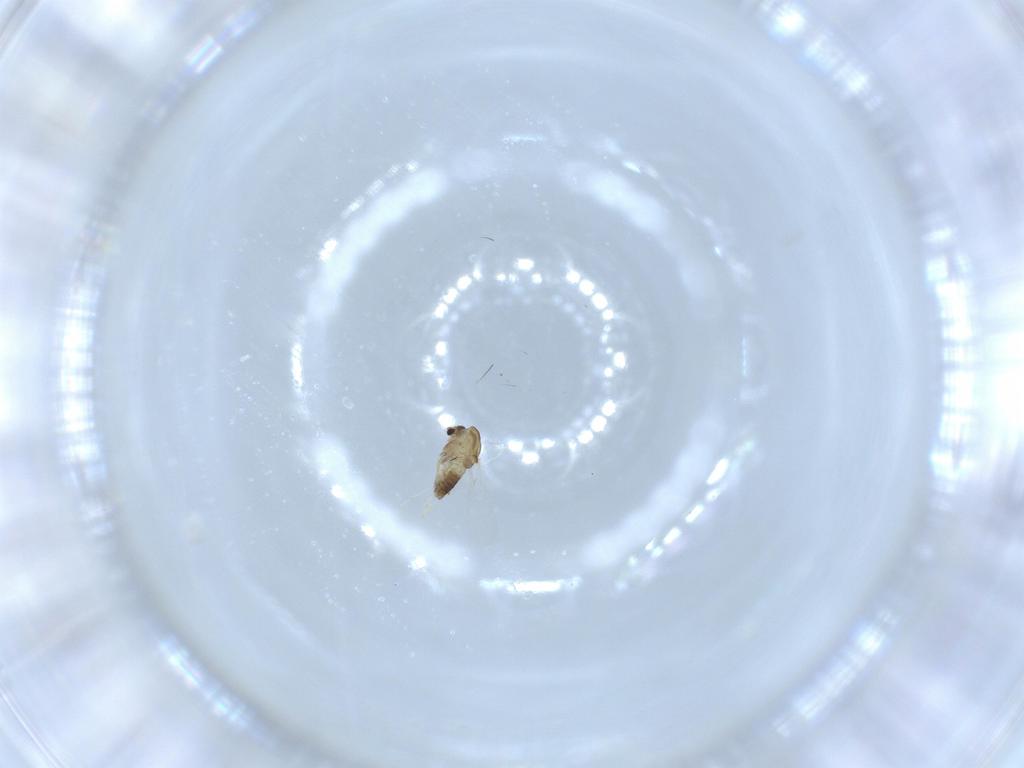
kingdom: Animalia
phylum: Arthropoda
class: Insecta
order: Diptera
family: Chironomidae
